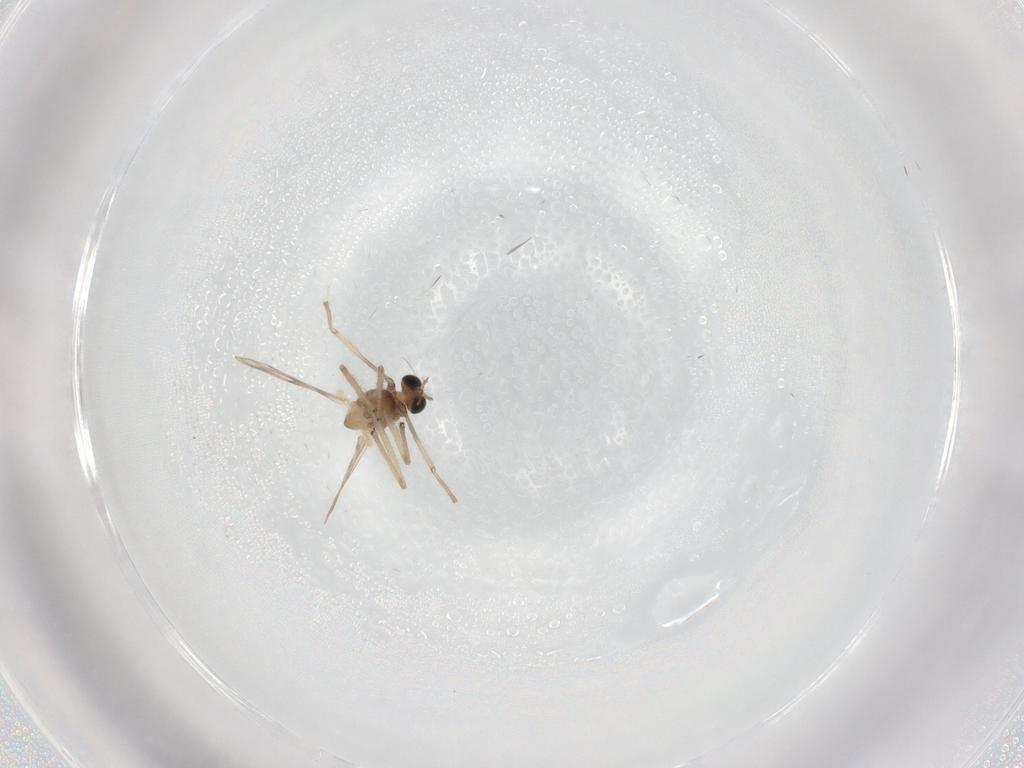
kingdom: Animalia
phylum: Arthropoda
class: Insecta
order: Diptera
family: Lauxaniidae
